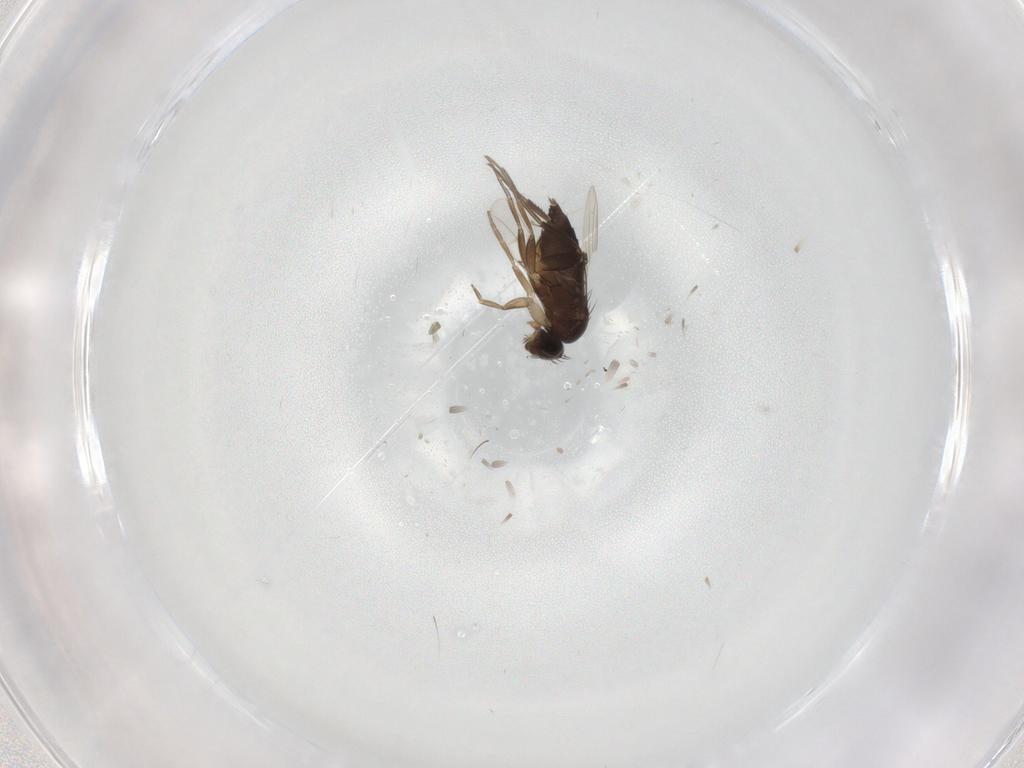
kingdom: Animalia
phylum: Arthropoda
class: Insecta
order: Diptera
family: Phoridae
